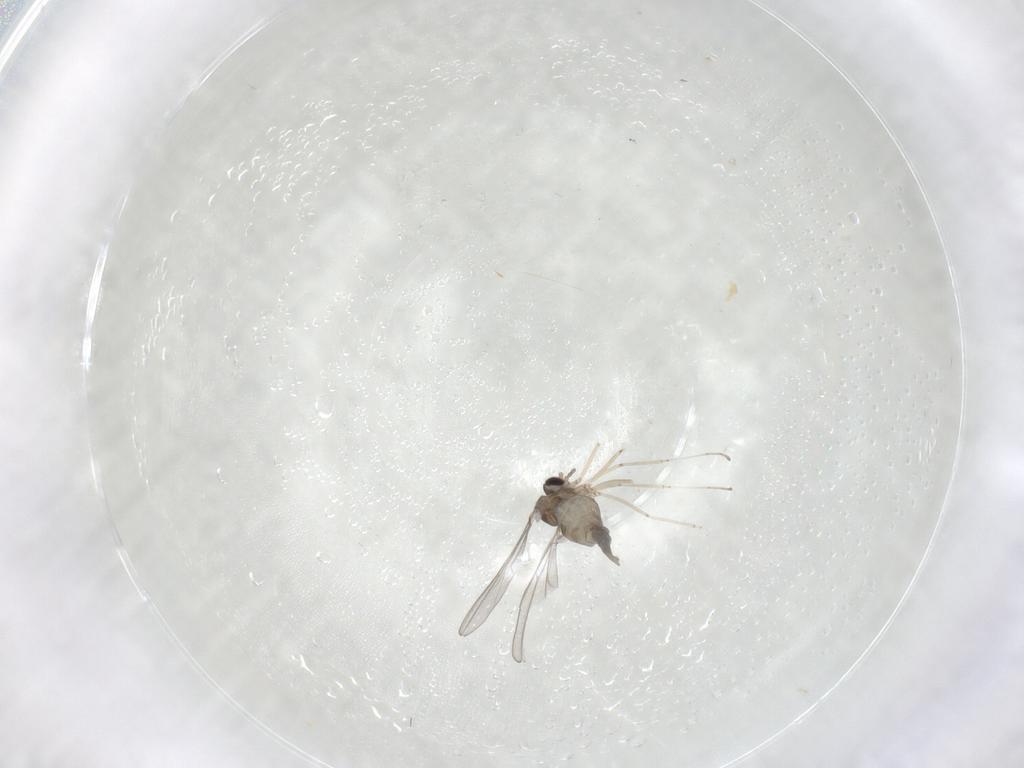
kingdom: Animalia
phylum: Arthropoda
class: Insecta
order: Diptera
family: Cecidomyiidae
